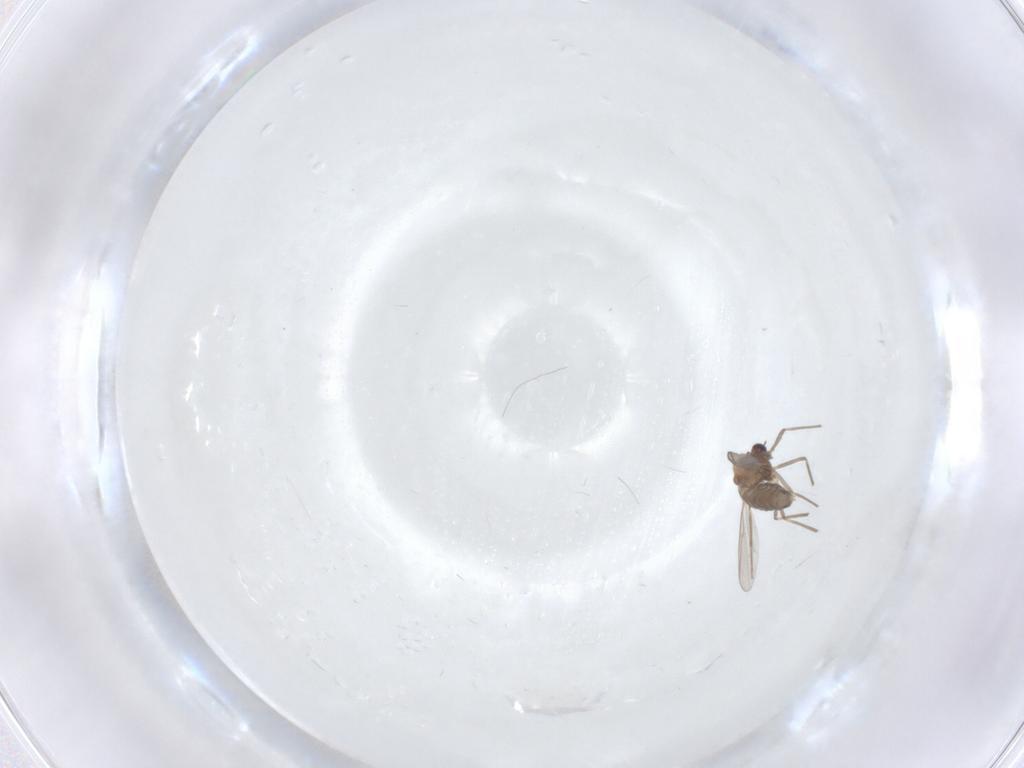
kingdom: Animalia
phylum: Arthropoda
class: Insecta
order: Diptera
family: Chironomidae
